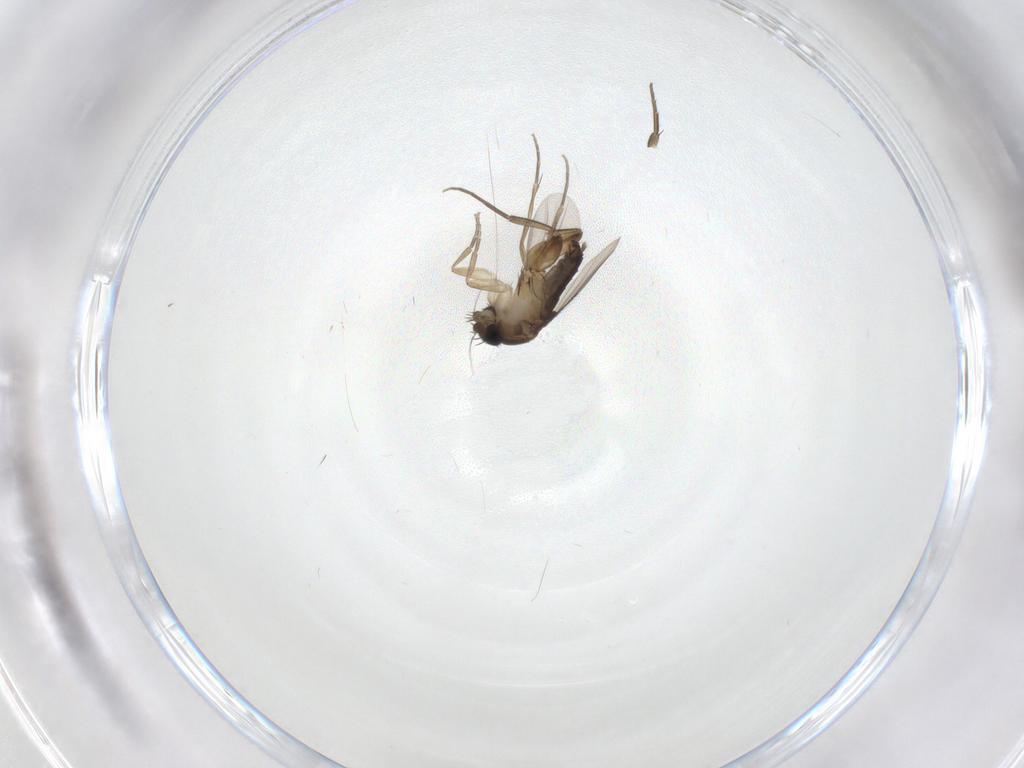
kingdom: Animalia
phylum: Arthropoda
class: Insecta
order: Diptera
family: Phoridae
